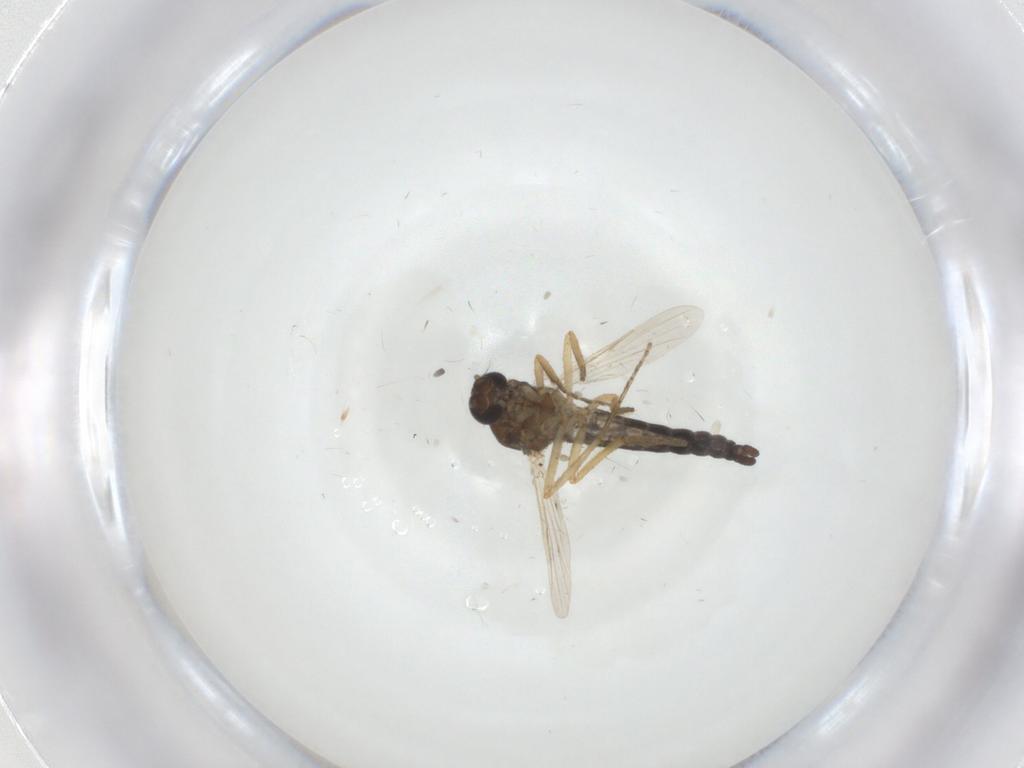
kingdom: Animalia
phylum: Arthropoda
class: Insecta
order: Diptera
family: Ceratopogonidae
